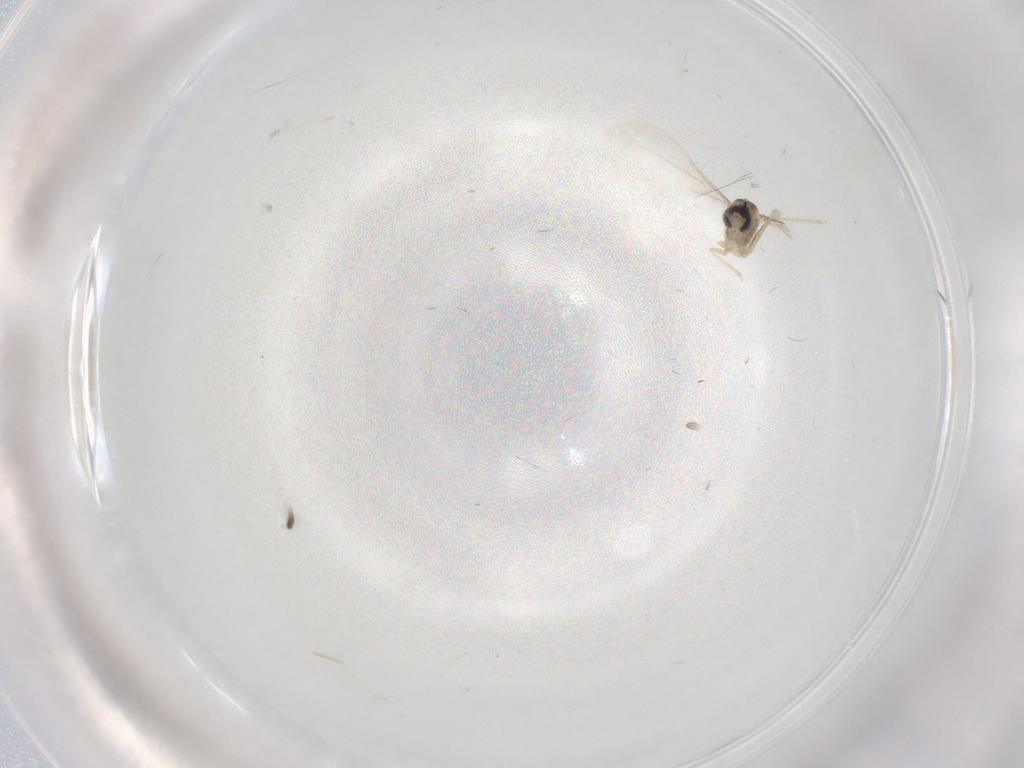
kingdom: Animalia
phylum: Arthropoda
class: Insecta
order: Diptera
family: Cecidomyiidae
